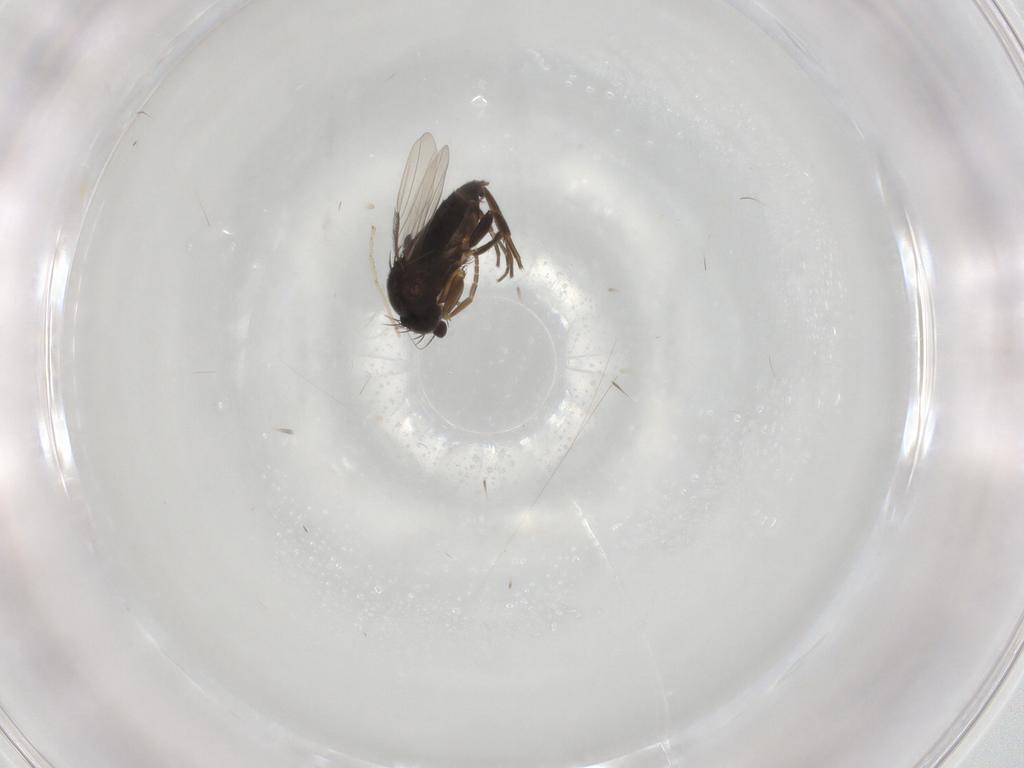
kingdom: Animalia
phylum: Arthropoda
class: Insecta
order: Diptera
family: Phoridae
